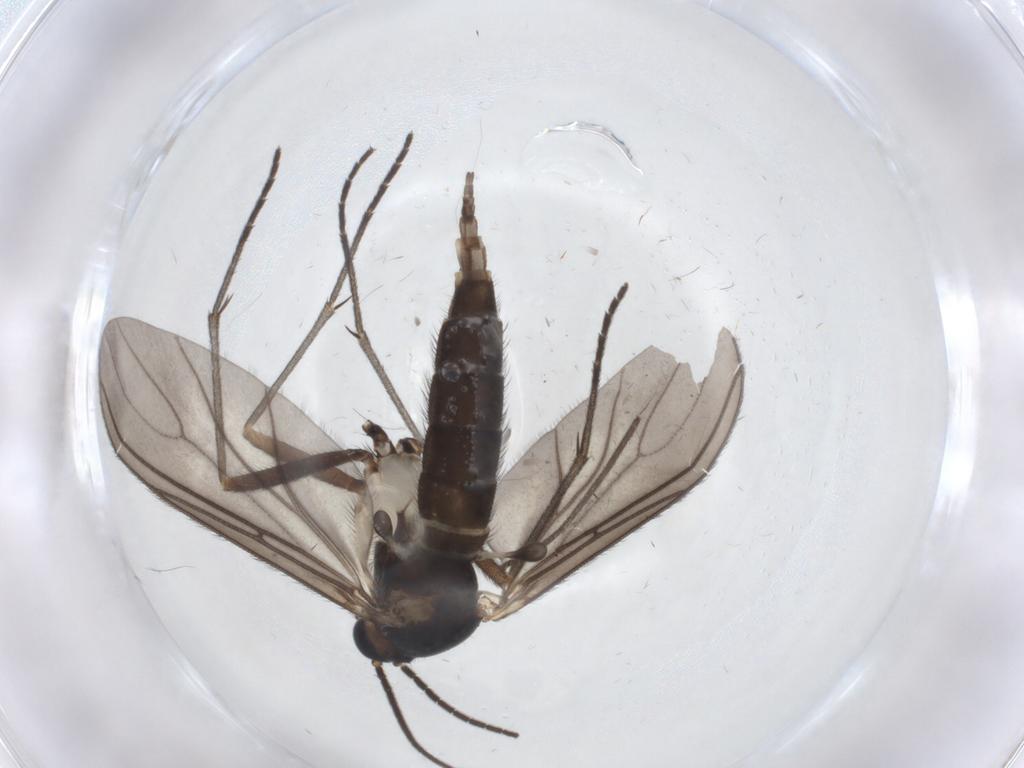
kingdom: Animalia
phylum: Arthropoda
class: Insecta
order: Diptera
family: Sciaridae
